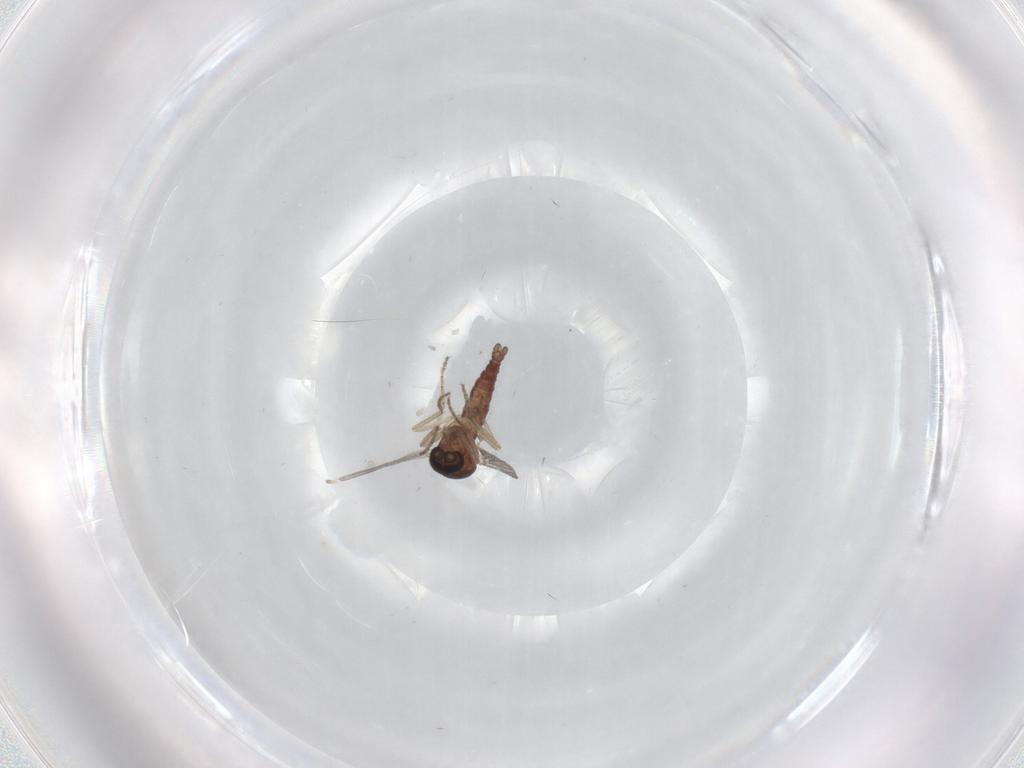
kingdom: Animalia
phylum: Arthropoda
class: Insecta
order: Diptera
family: Ceratopogonidae
